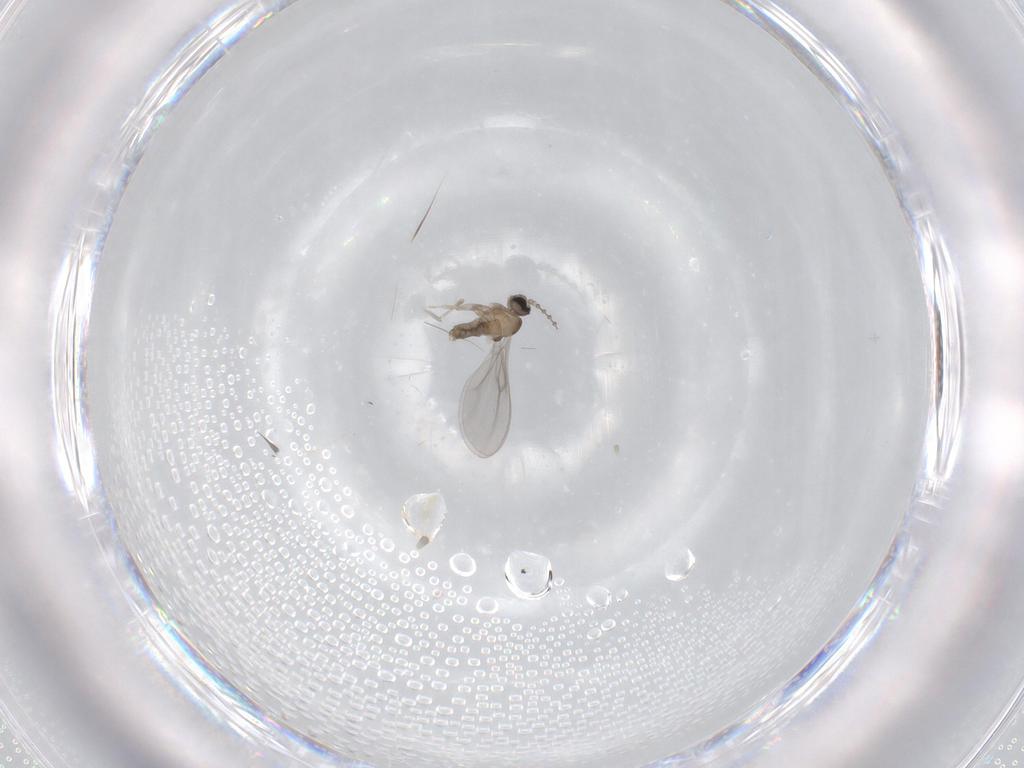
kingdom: Animalia
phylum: Arthropoda
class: Insecta
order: Diptera
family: Cecidomyiidae
